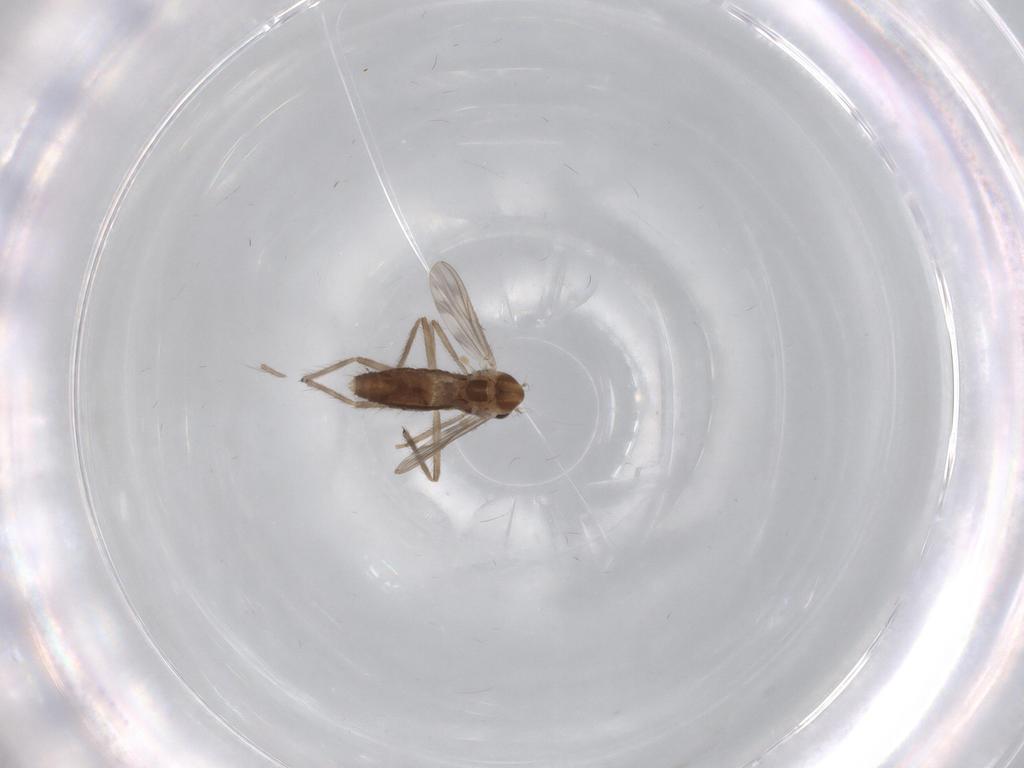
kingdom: Animalia
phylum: Arthropoda
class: Insecta
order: Diptera
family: Chironomidae
